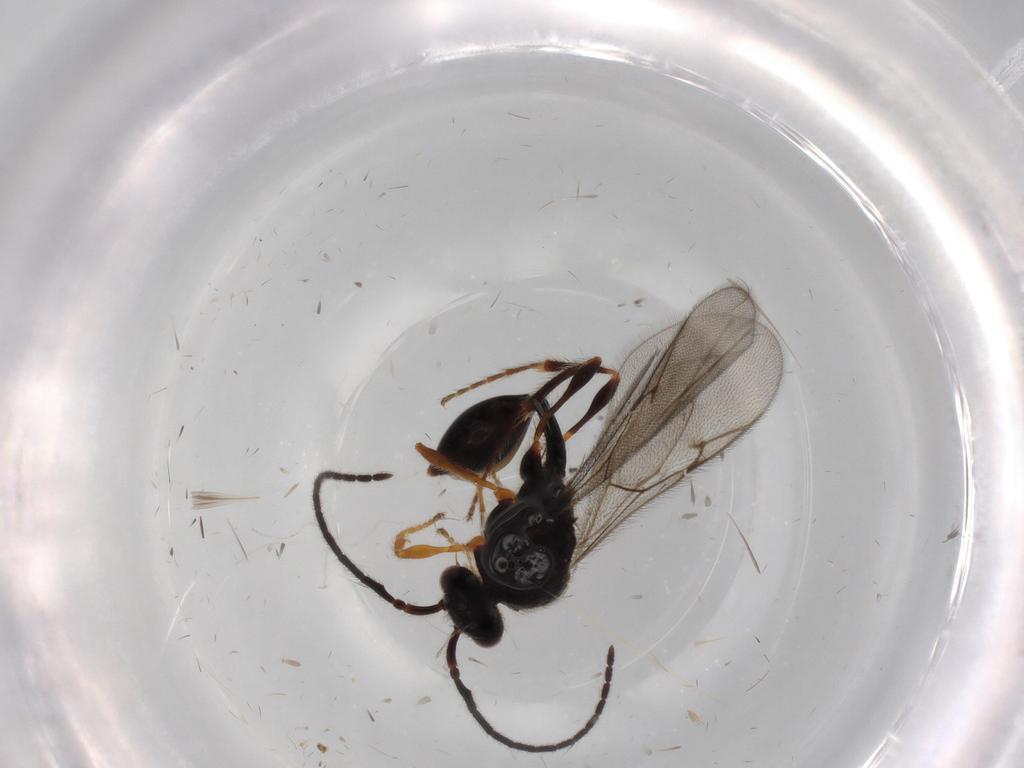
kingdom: Animalia
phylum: Arthropoda
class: Insecta
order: Hymenoptera
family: Diapriidae
